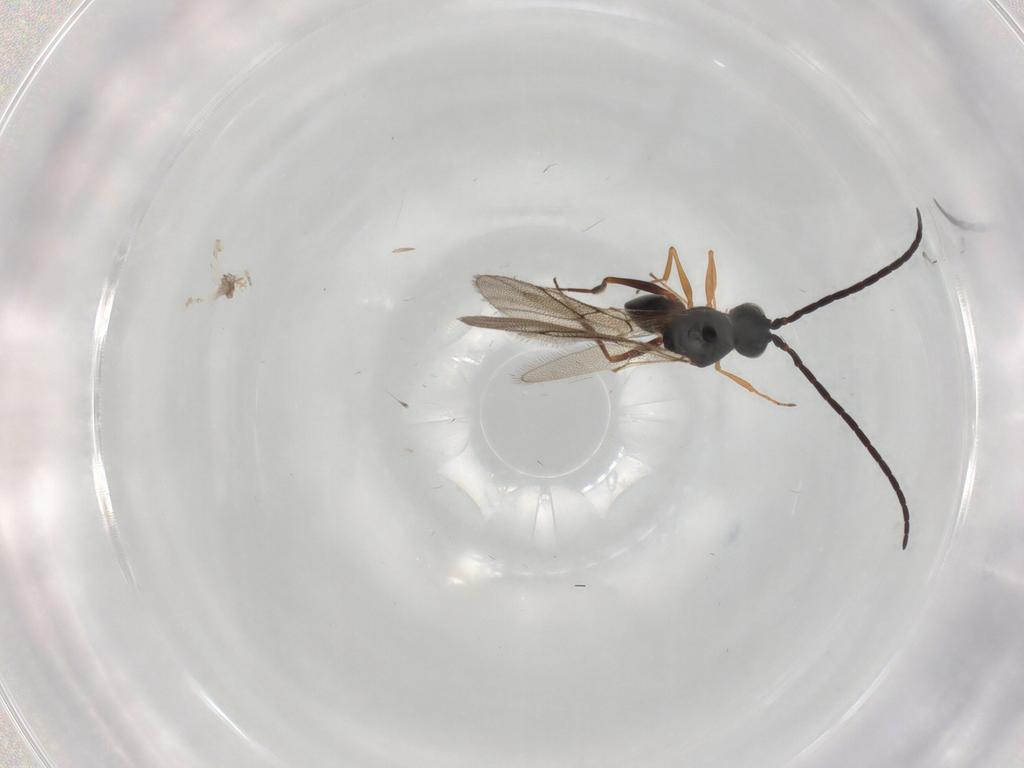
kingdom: Animalia
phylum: Arthropoda
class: Insecta
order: Hymenoptera
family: Figitidae
